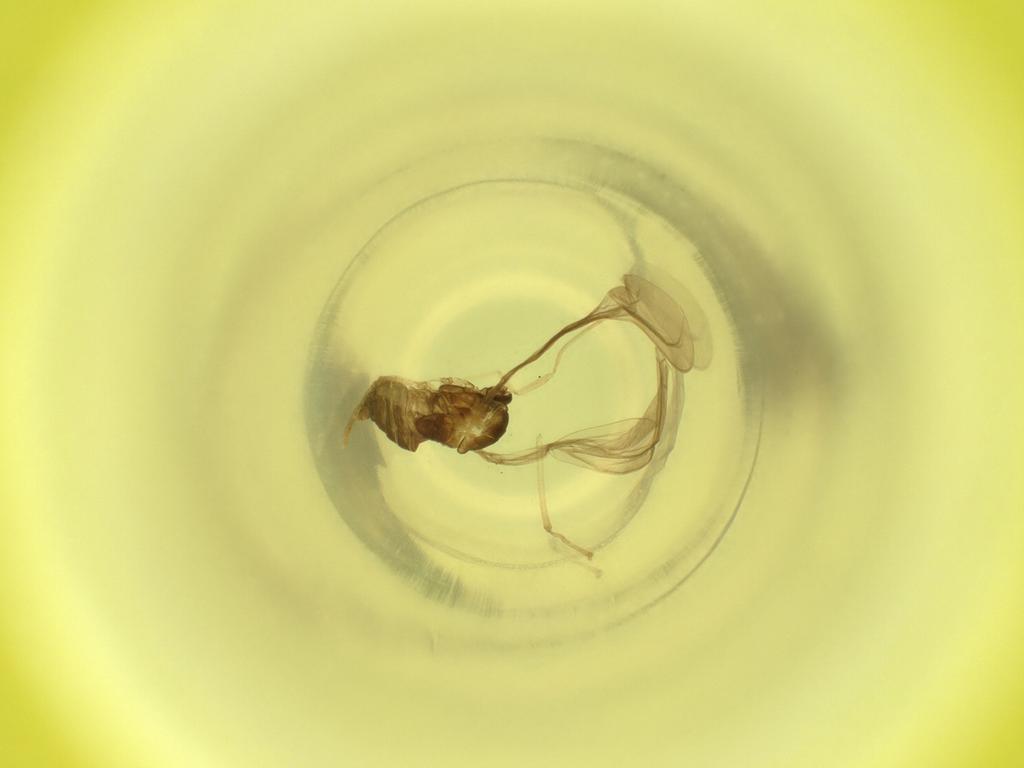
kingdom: Animalia
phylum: Arthropoda
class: Insecta
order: Diptera
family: Cecidomyiidae
